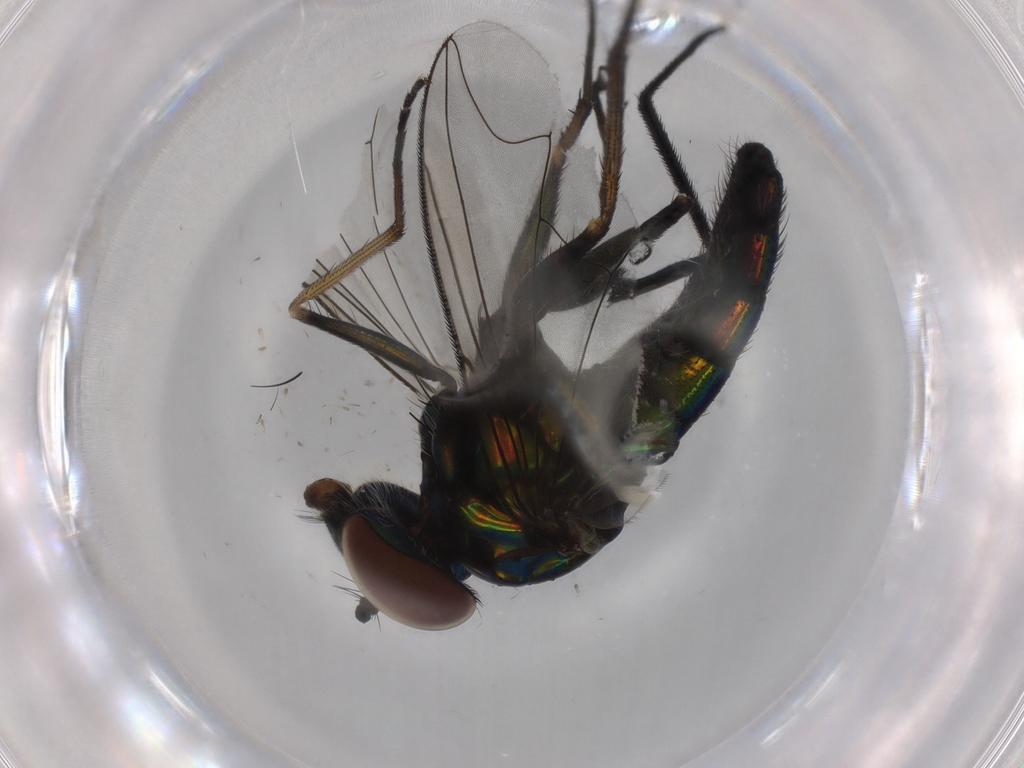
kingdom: Animalia
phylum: Arthropoda
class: Insecta
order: Diptera
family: Dolichopodidae
